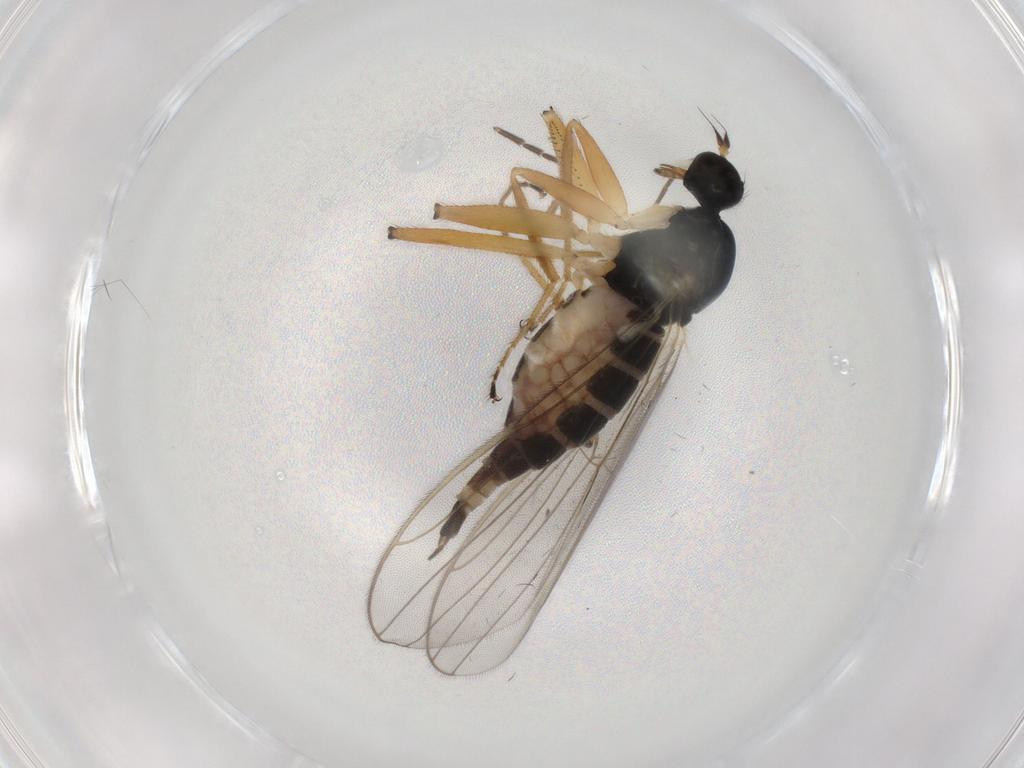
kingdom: Animalia
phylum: Arthropoda
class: Insecta
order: Diptera
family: Hybotidae
